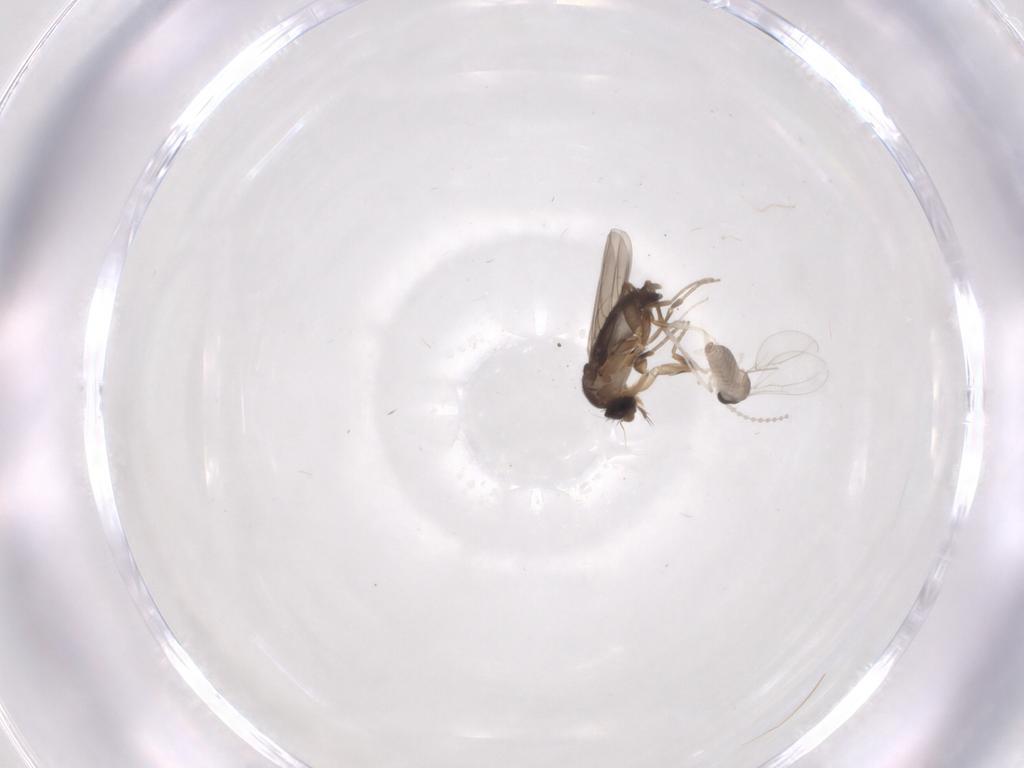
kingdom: Animalia
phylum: Arthropoda
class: Insecta
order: Diptera
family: Phoridae
